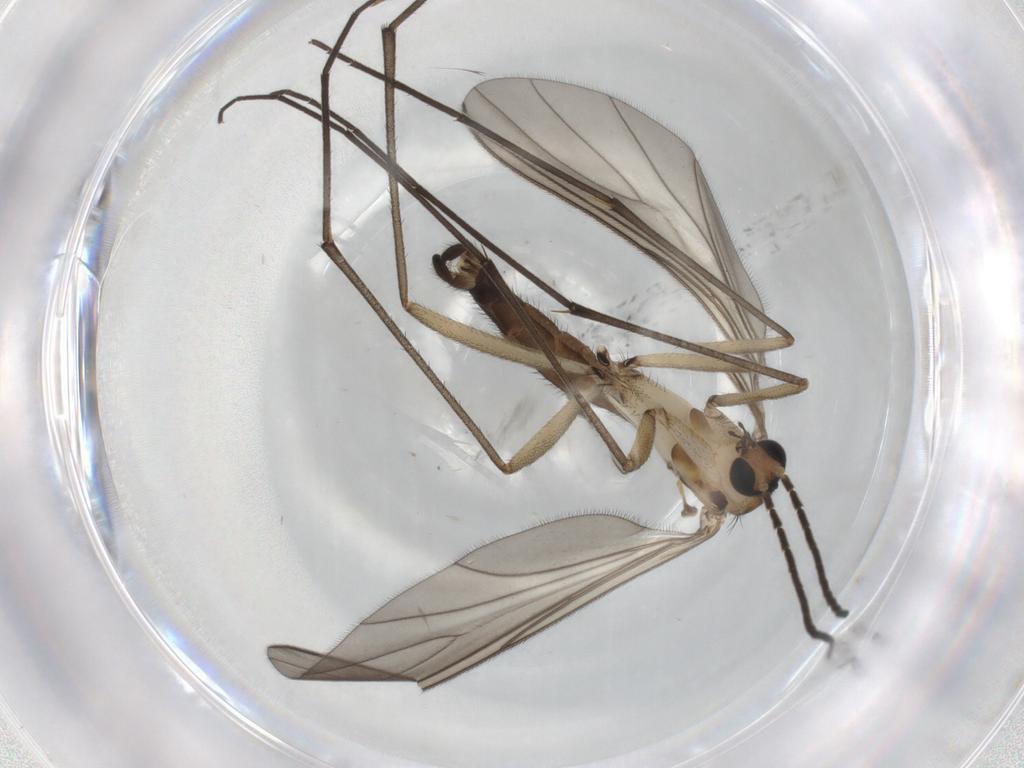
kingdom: Animalia
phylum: Arthropoda
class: Insecta
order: Diptera
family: Sciaridae
